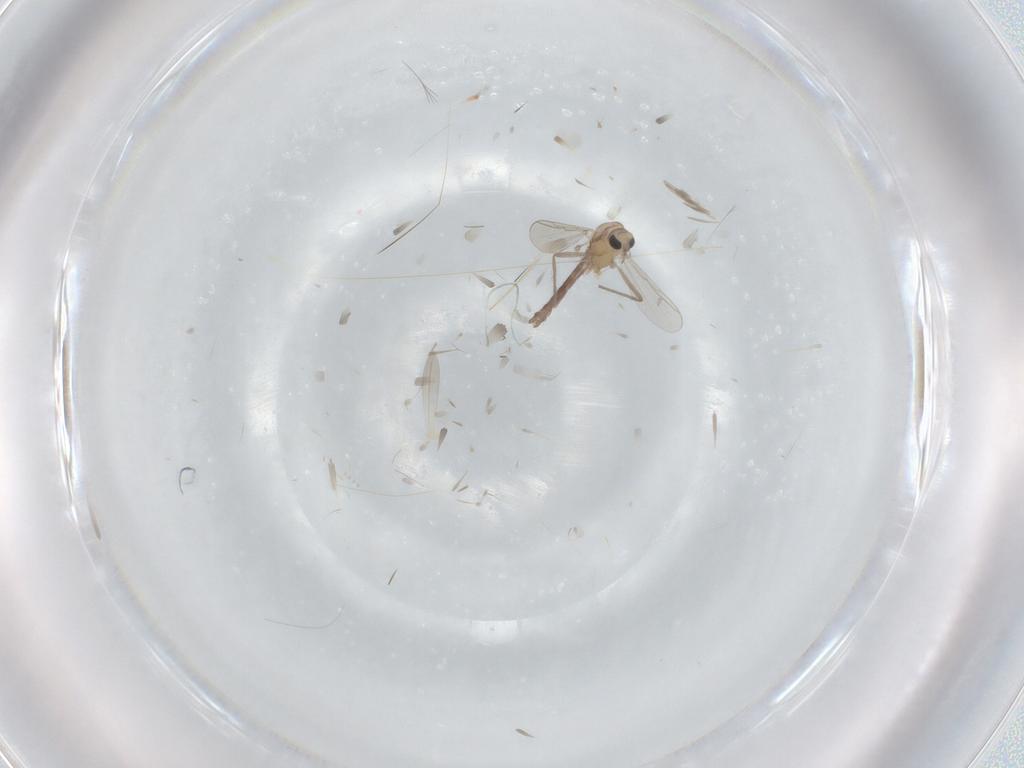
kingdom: Animalia
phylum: Arthropoda
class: Insecta
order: Diptera
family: Chironomidae
